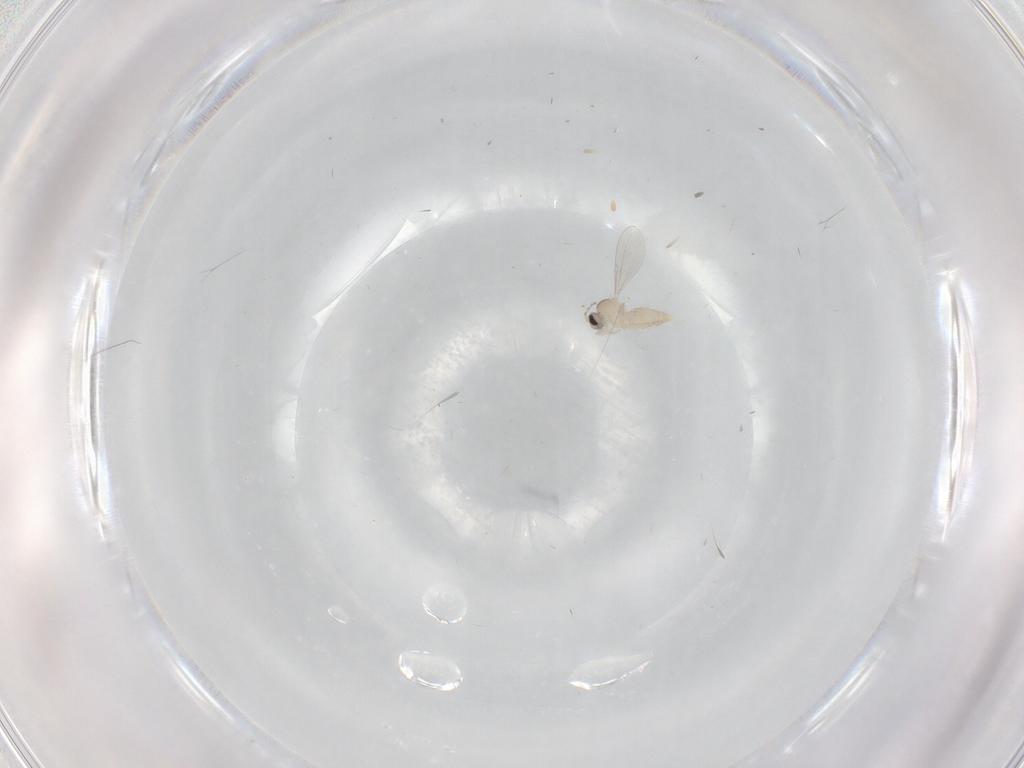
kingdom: Animalia
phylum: Arthropoda
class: Insecta
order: Diptera
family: Cecidomyiidae
